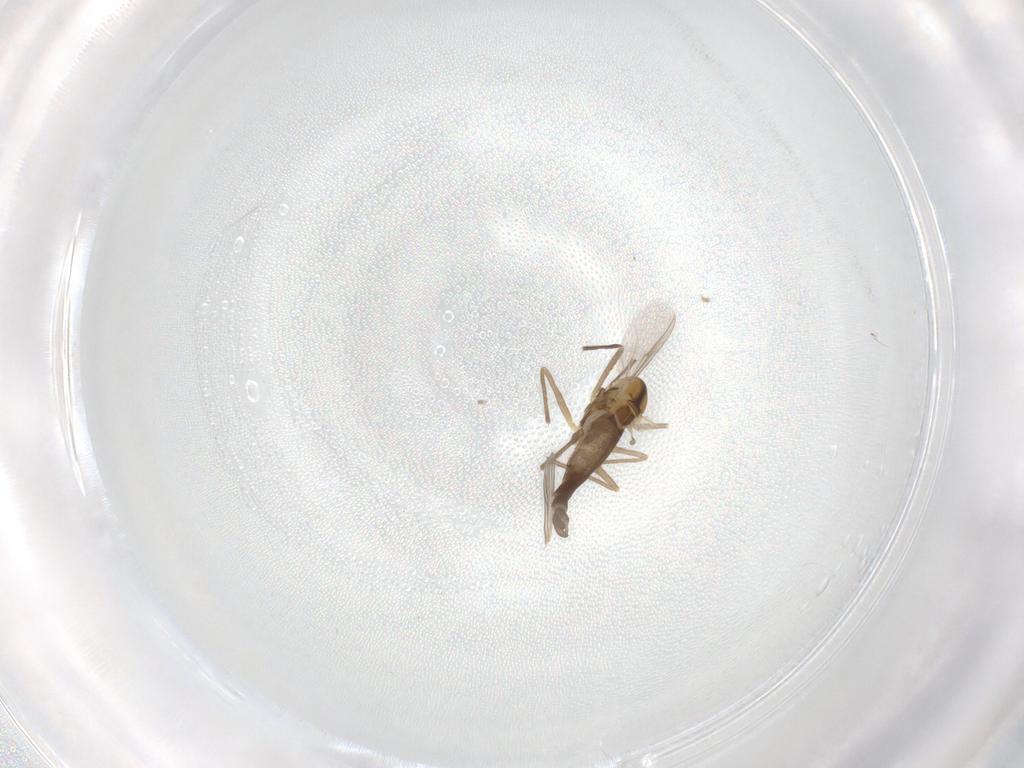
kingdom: Animalia
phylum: Arthropoda
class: Insecta
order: Diptera
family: Chironomidae
